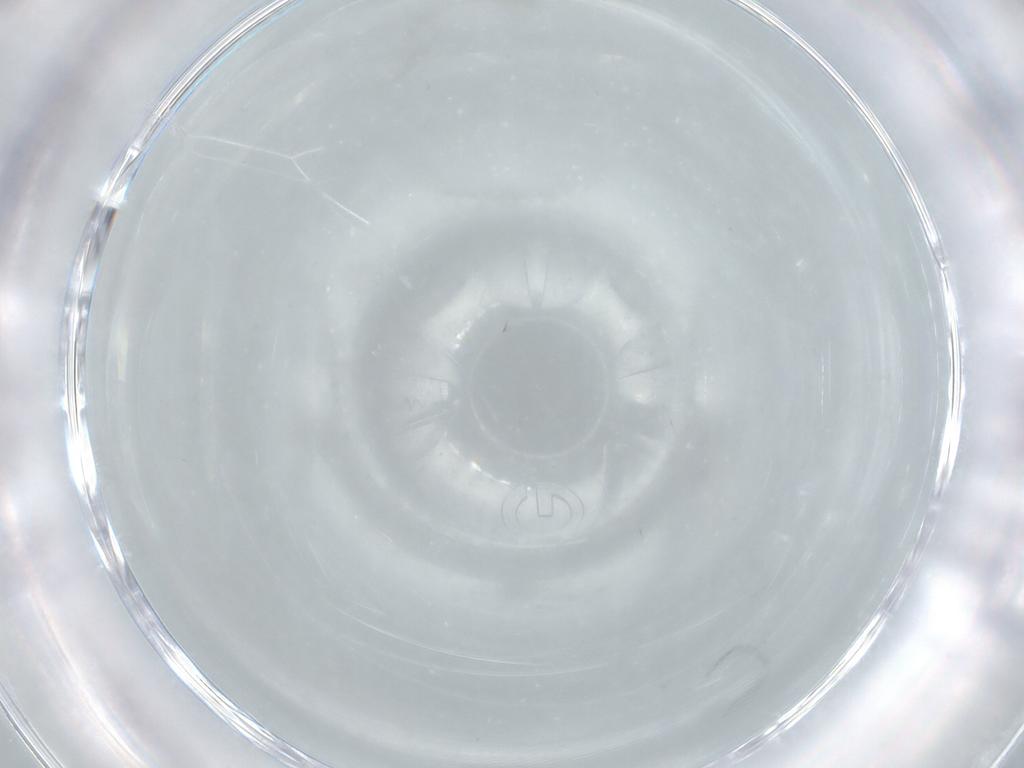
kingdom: Animalia
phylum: Arthropoda
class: Insecta
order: Diptera
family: Chironomidae
